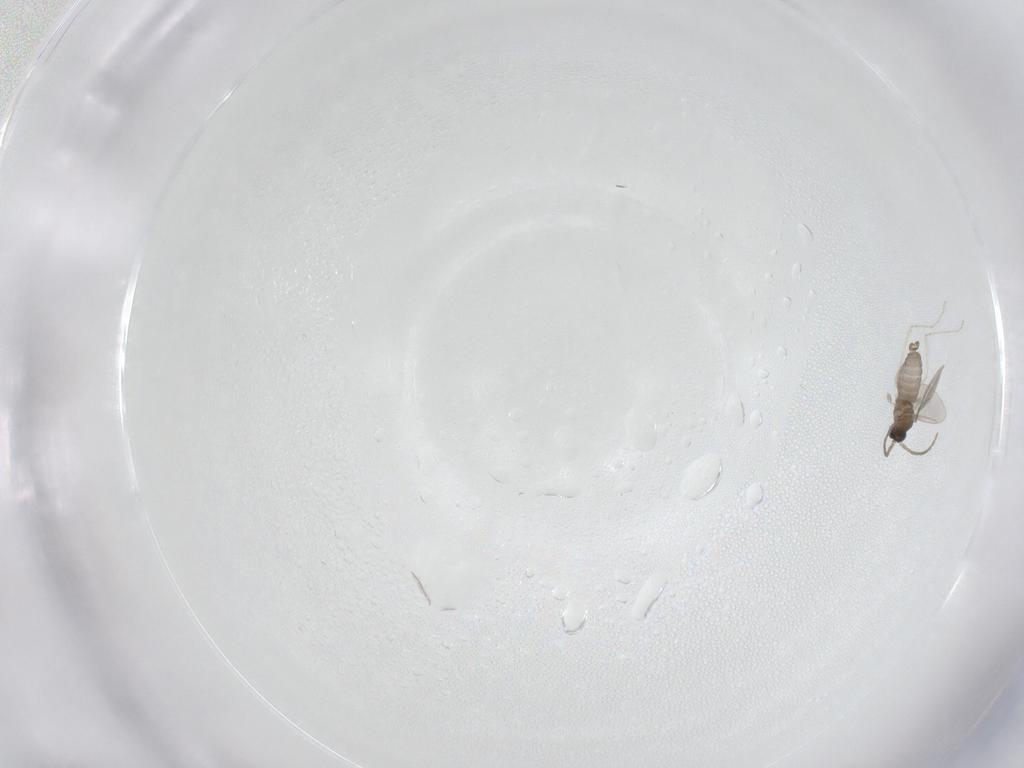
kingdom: Animalia
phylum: Arthropoda
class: Insecta
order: Diptera
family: Cecidomyiidae
